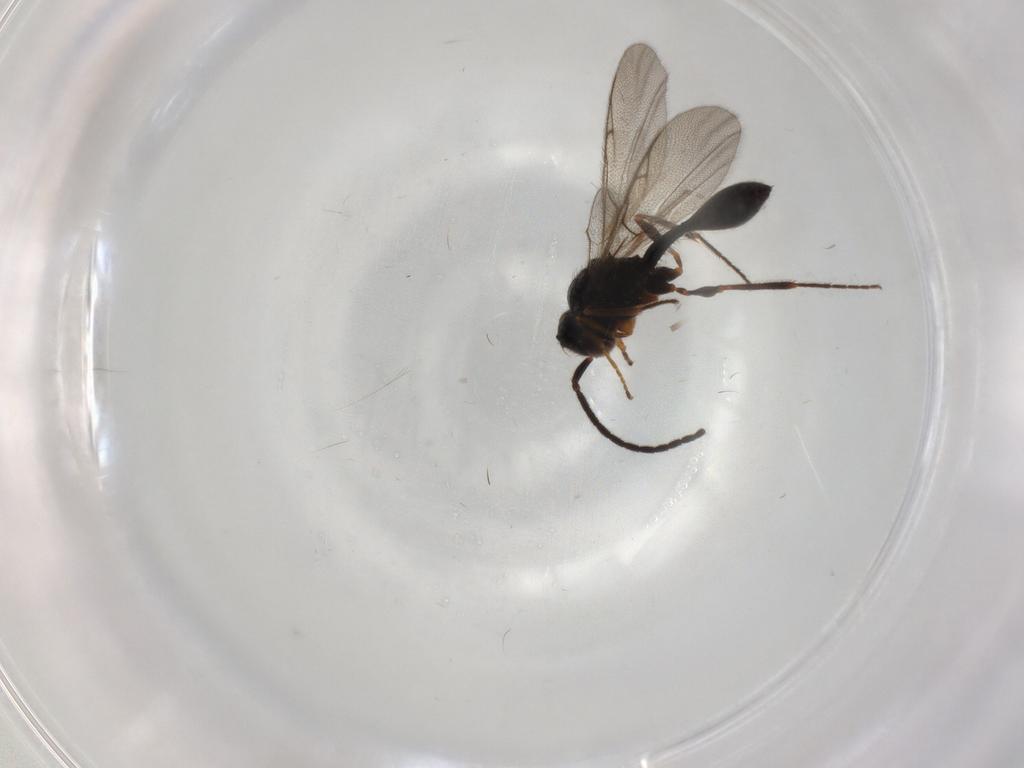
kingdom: Animalia
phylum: Arthropoda
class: Insecta
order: Hymenoptera
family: Diapriidae
